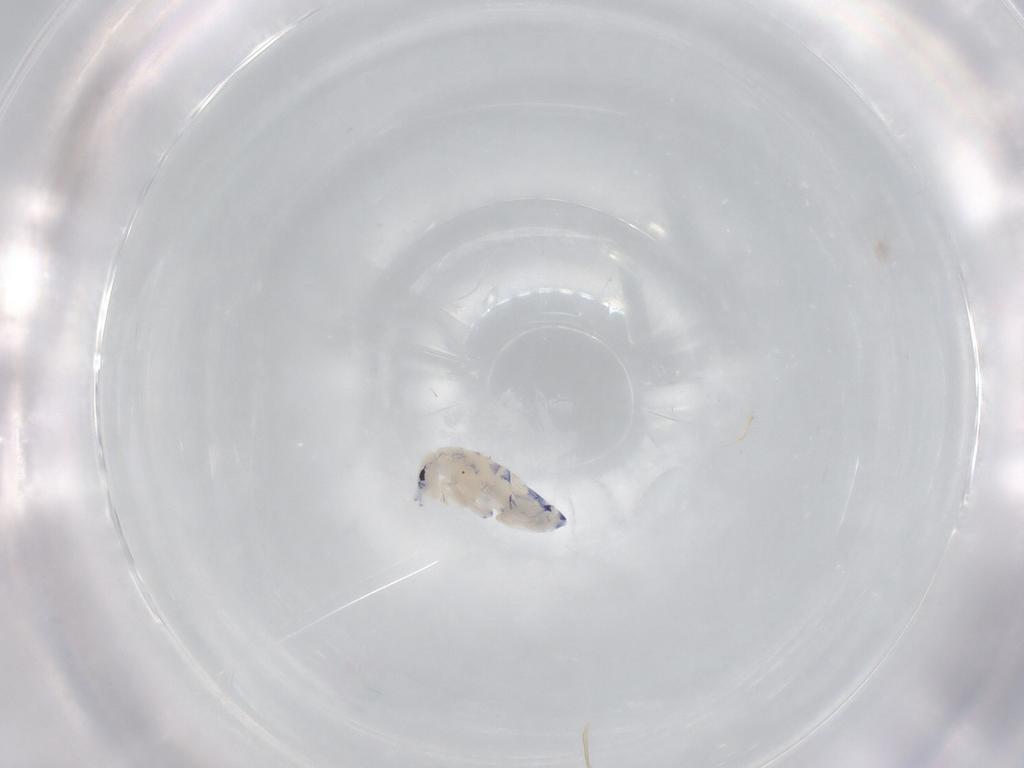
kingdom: Animalia
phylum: Arthropoda
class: Collembola
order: Entomobryomorpha
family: Entomobryidae
